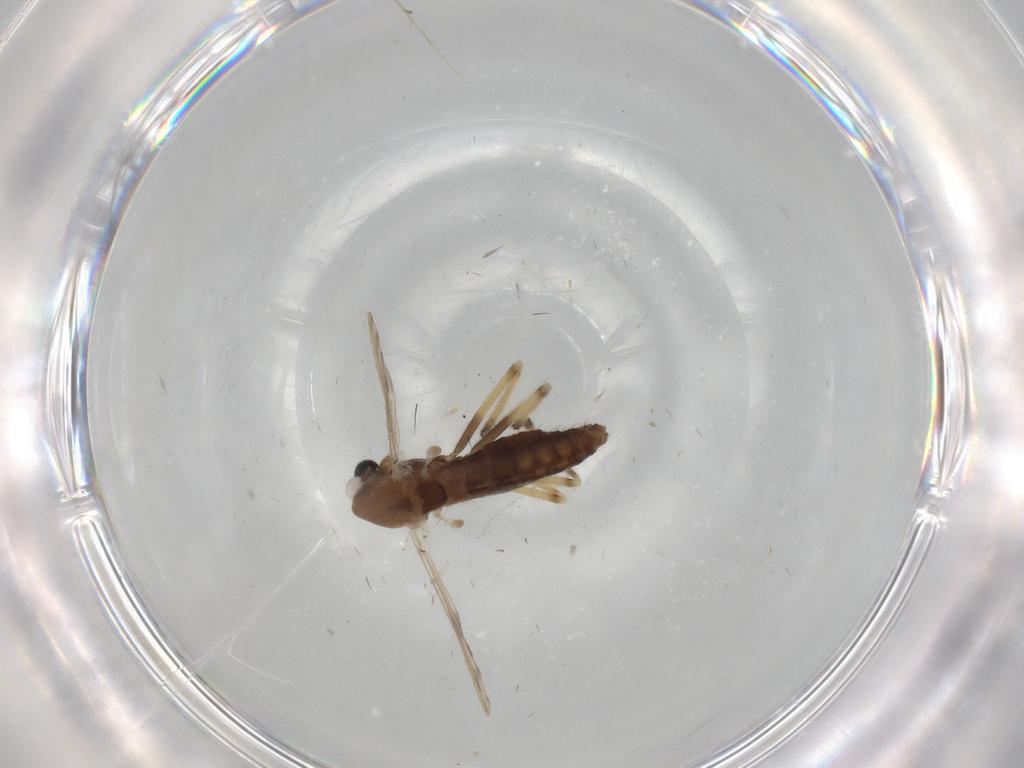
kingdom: Animalia
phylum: Arthropoda
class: Insecta
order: Diptera
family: Chironomidae
